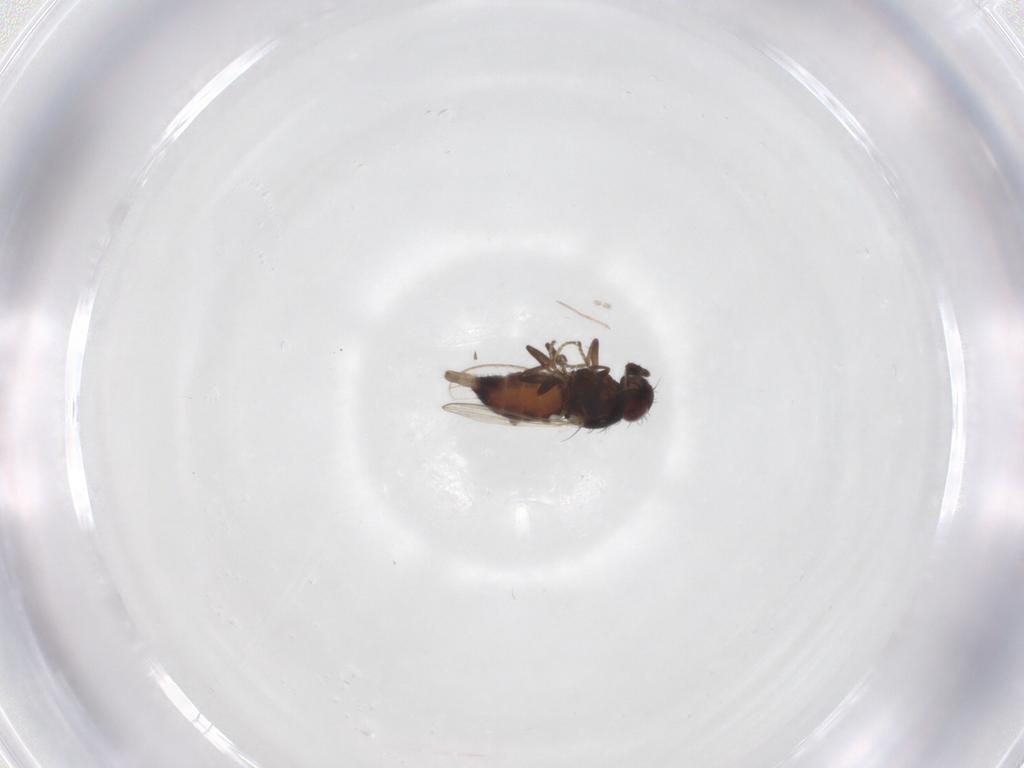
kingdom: Animalia
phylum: Arthropoda
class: Insecta
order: Diptera
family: Carnidae
